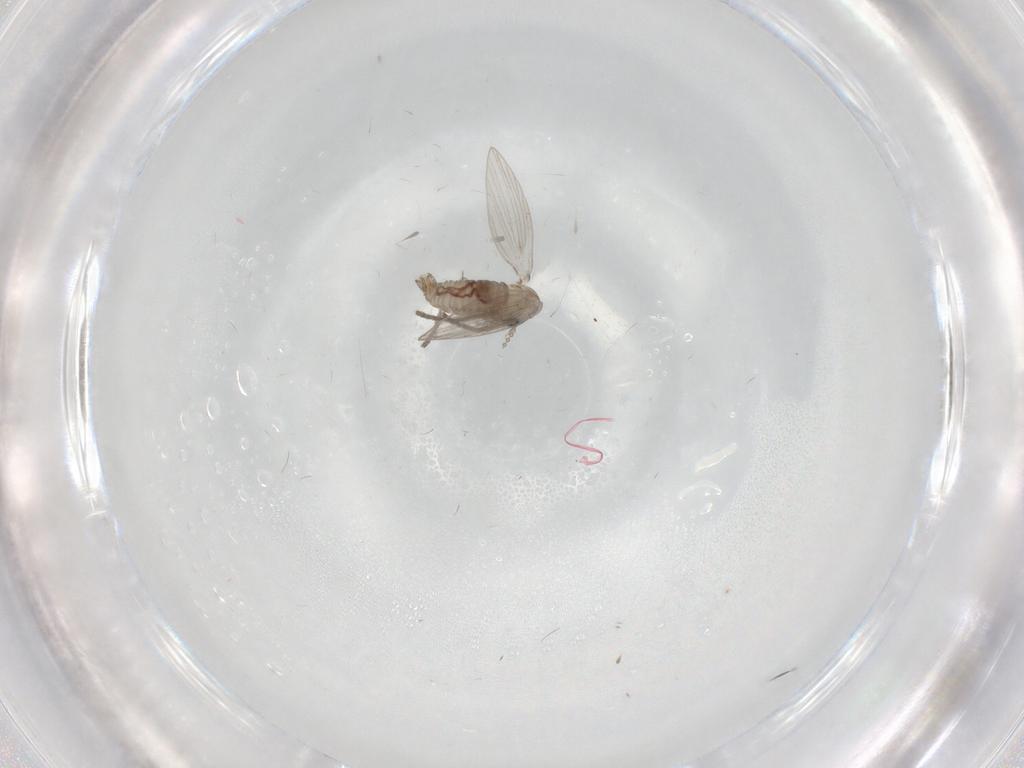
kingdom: Animalia
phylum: Arthropoda
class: Insecta
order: Diptera
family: Psychodidae
